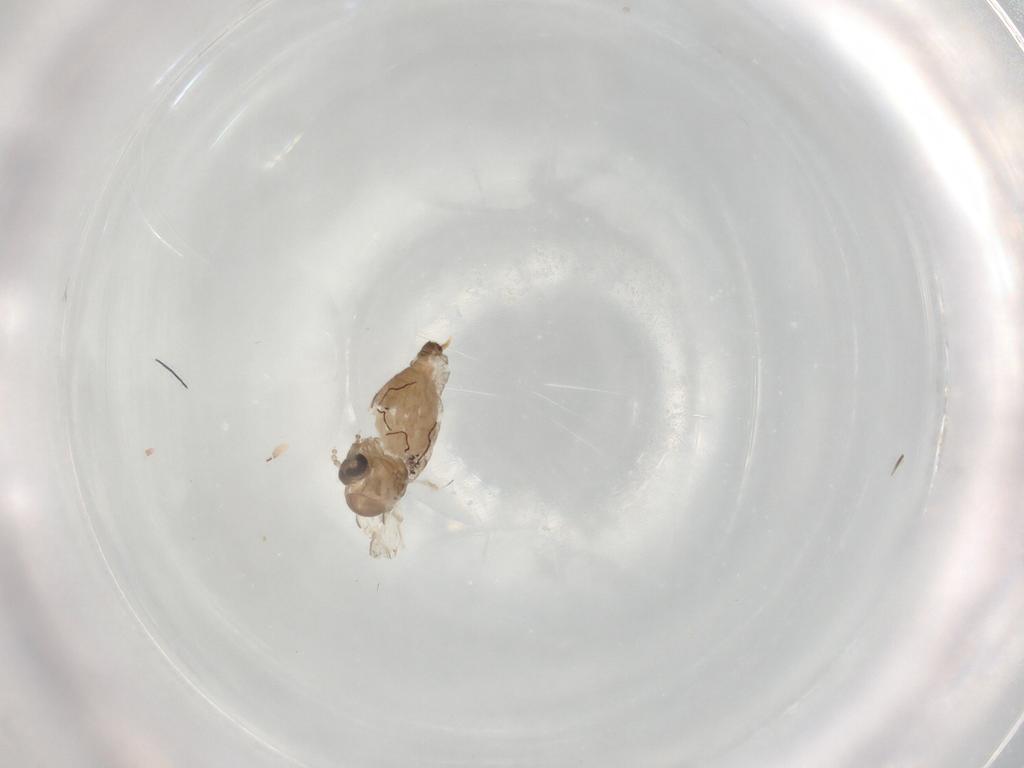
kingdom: Animalia
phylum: Arthropoda
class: Insecta
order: Diptera
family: Psychodidae
